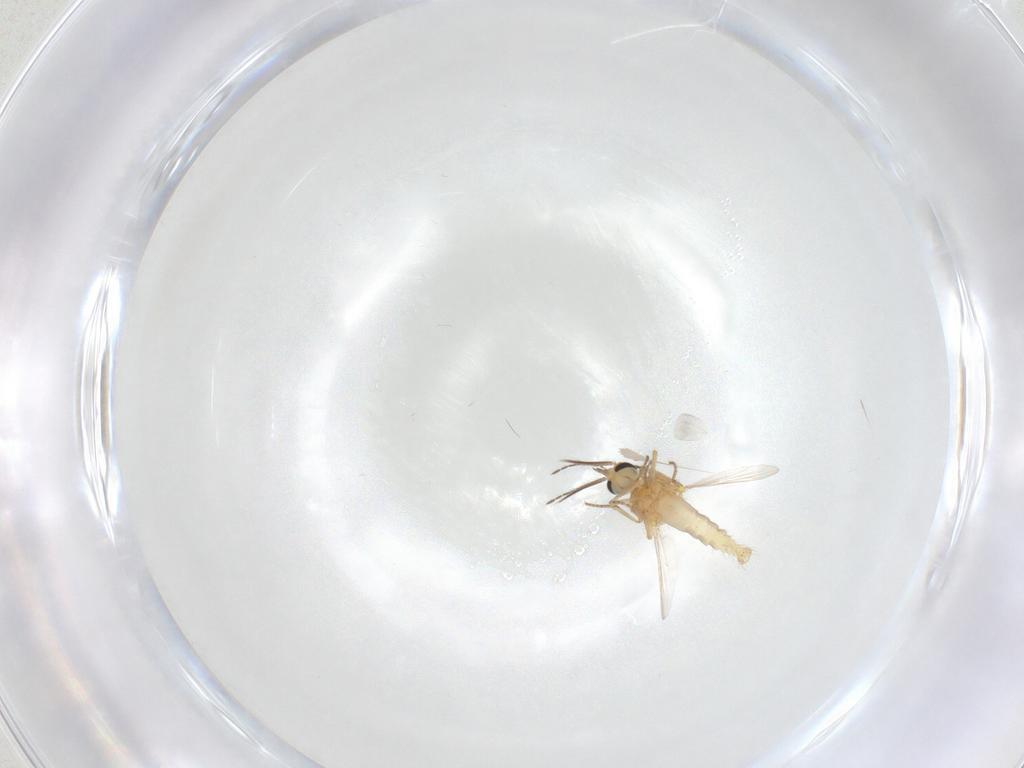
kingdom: Animalia
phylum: Arthropoda
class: Insecta
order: Diptera
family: Ceratopogonidae
